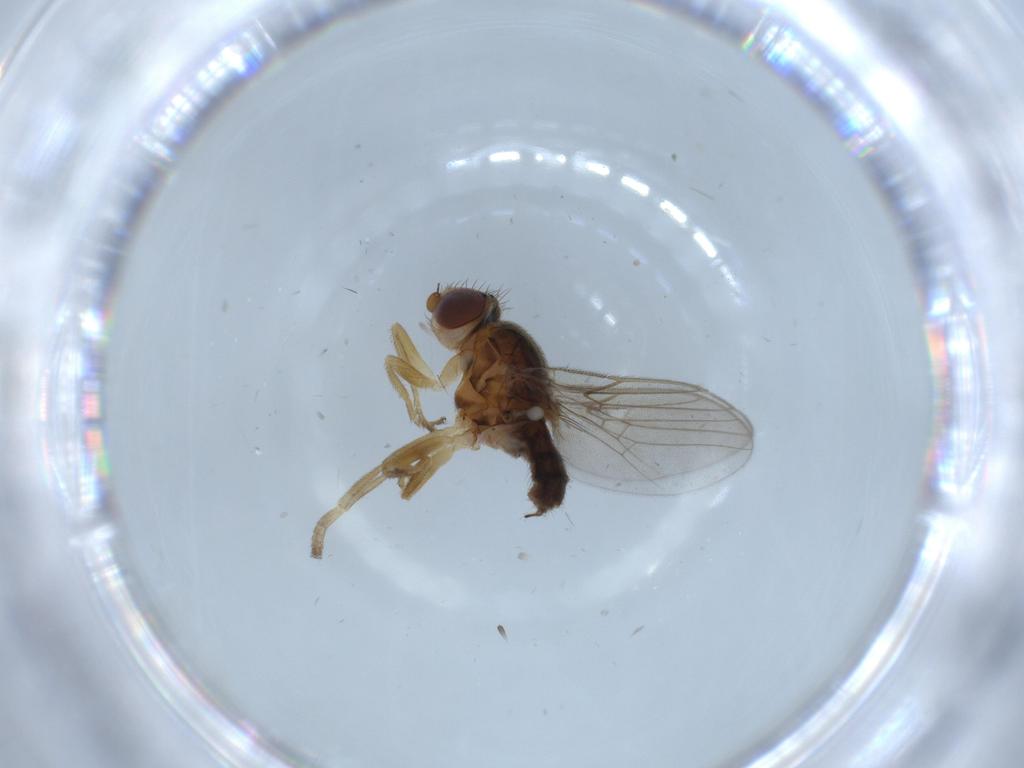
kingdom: Animalia
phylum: Arthropoda
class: Insecta
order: Diptera
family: Chloropidae
